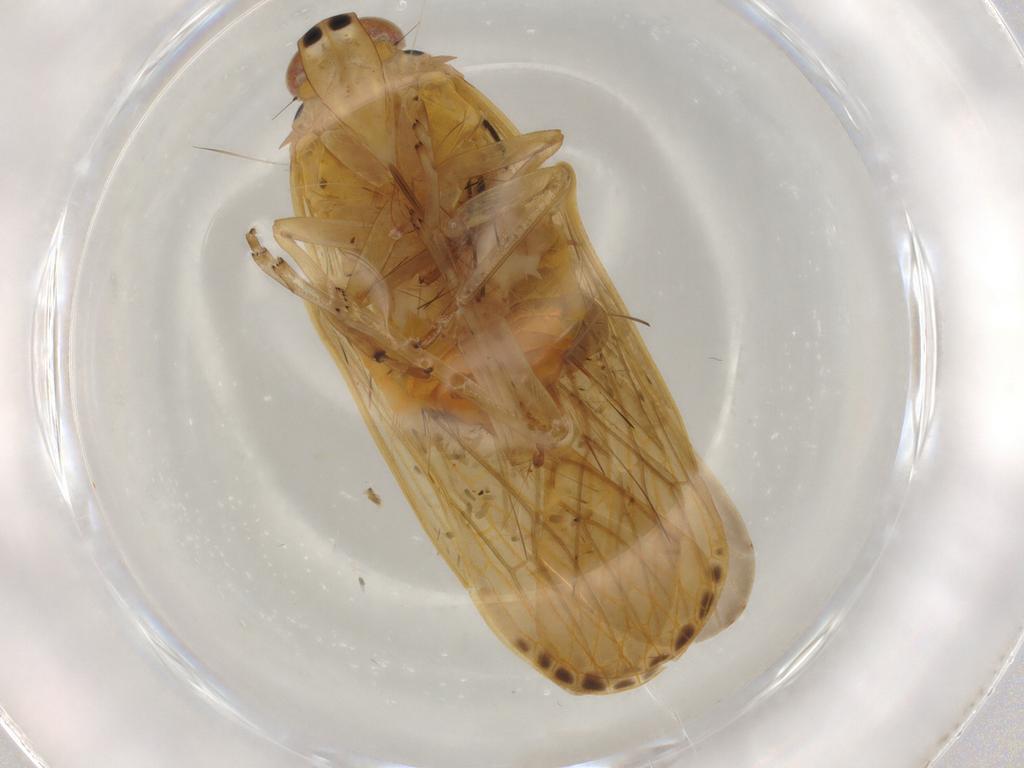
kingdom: Animalia
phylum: Arthropoda
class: Insecta
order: Hemiptera
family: Achilidae
